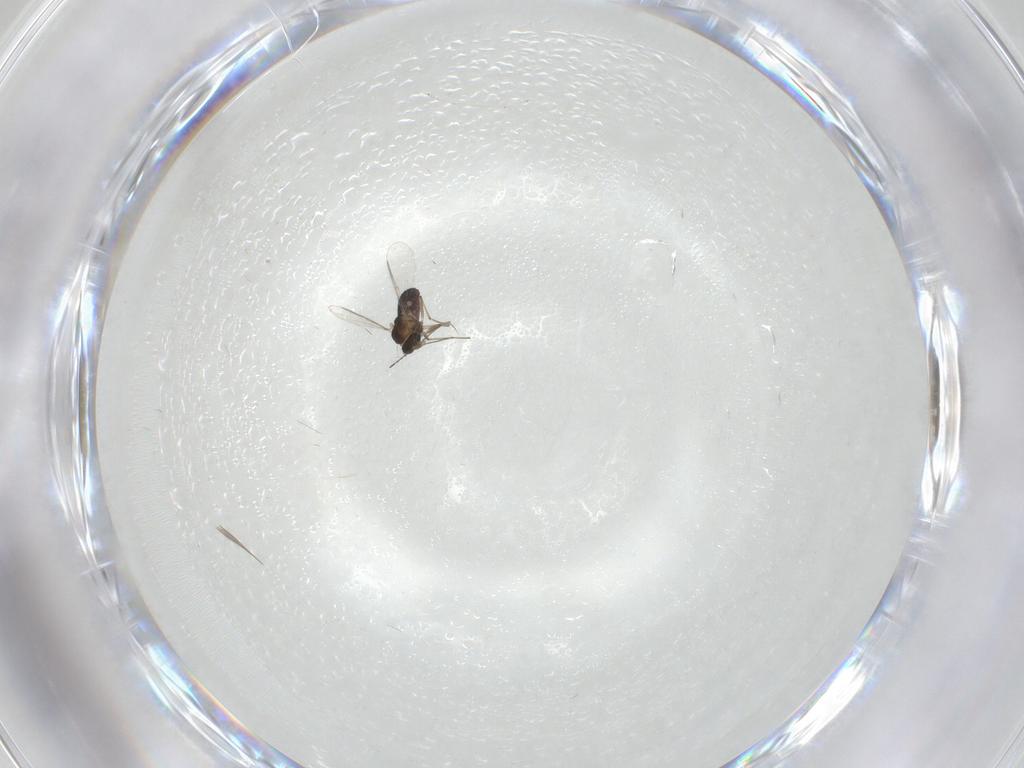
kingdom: Animalia
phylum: Arthropoda
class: Insecta
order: Diptera
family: Chironomidae
